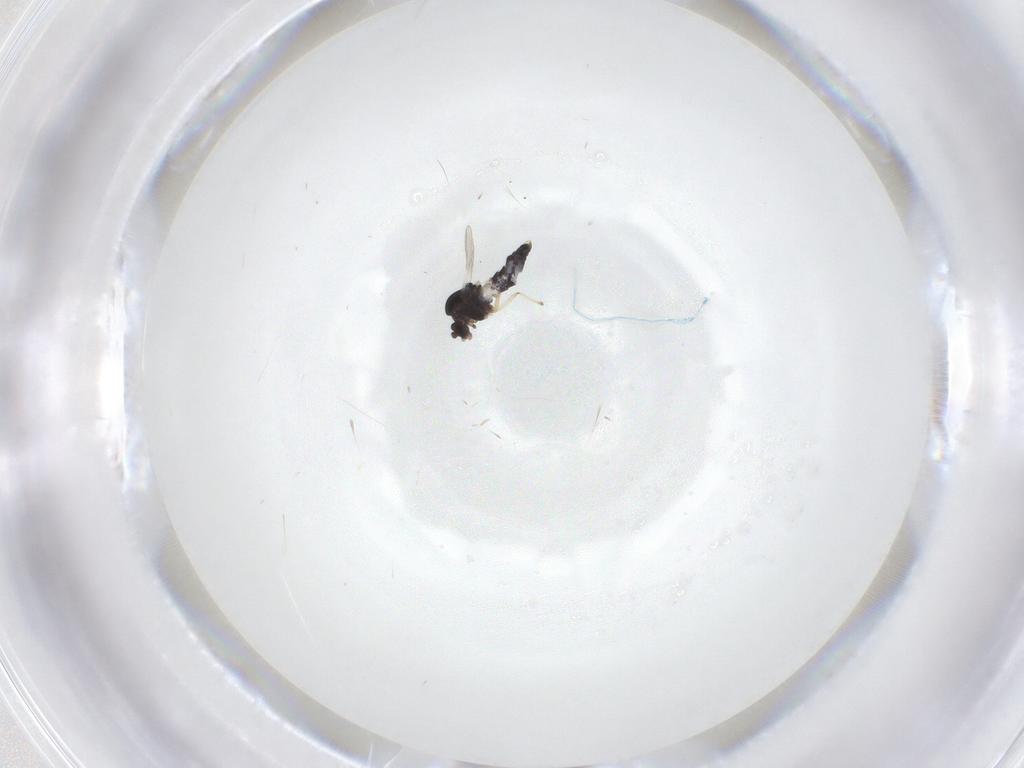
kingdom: Animalia
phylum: Arthropoda
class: Insecta
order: Diptera
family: Chironomidae
